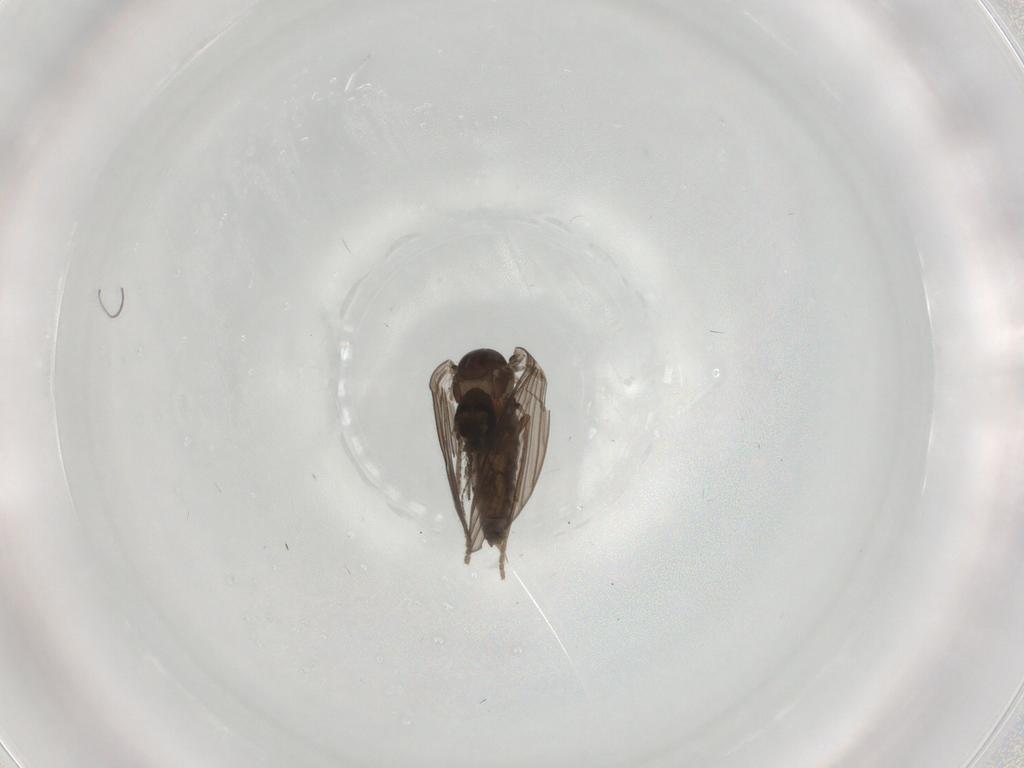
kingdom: Animalia
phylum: Arthropoda
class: Insecta
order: Diptera
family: Psychodidae
